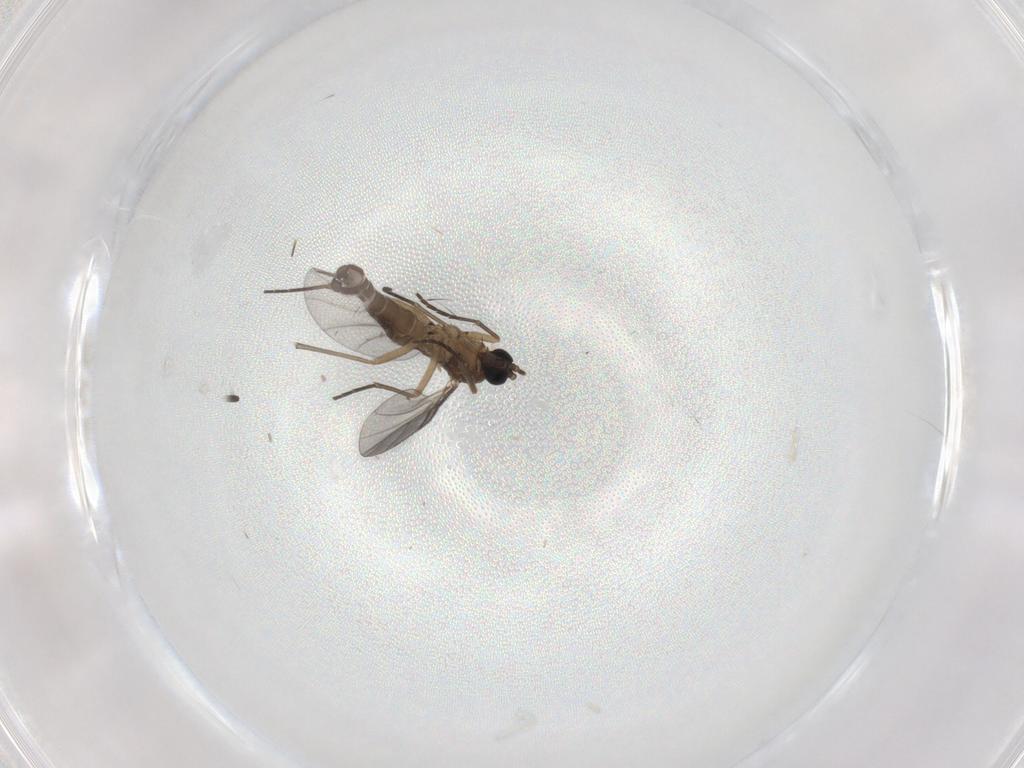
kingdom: Animalia
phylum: Arthropoda
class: Insecta
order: Diptera
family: Sciaridae
